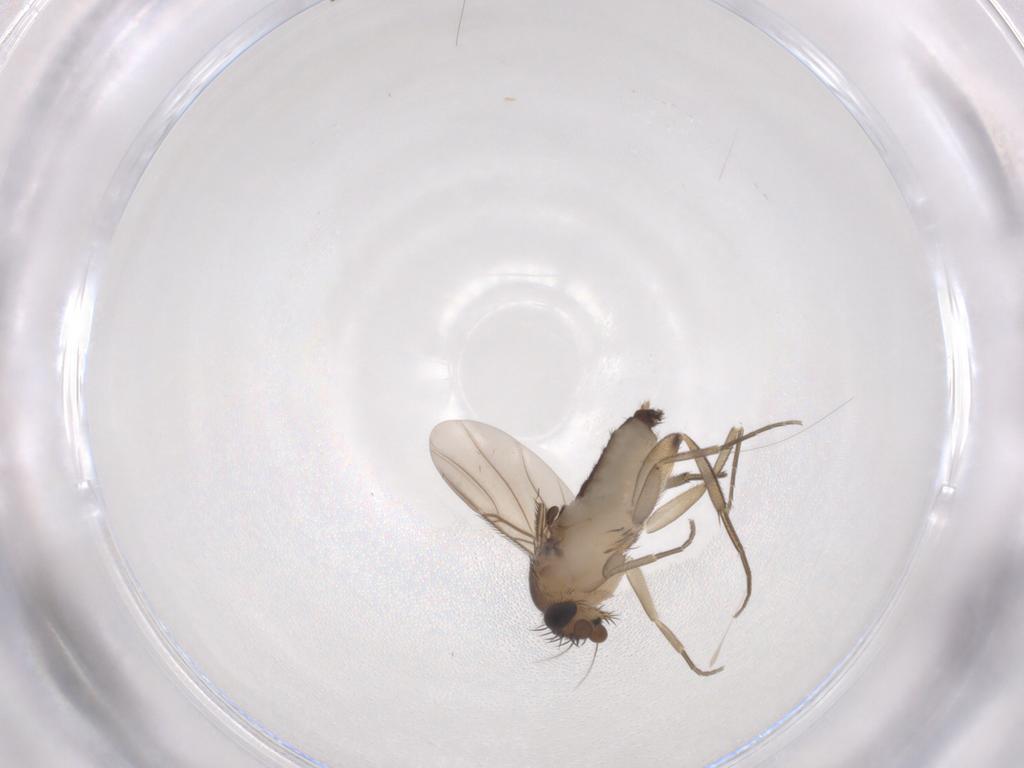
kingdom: Animalia
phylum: Arthropoda
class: Insecta
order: Diptera
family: Phoridae
